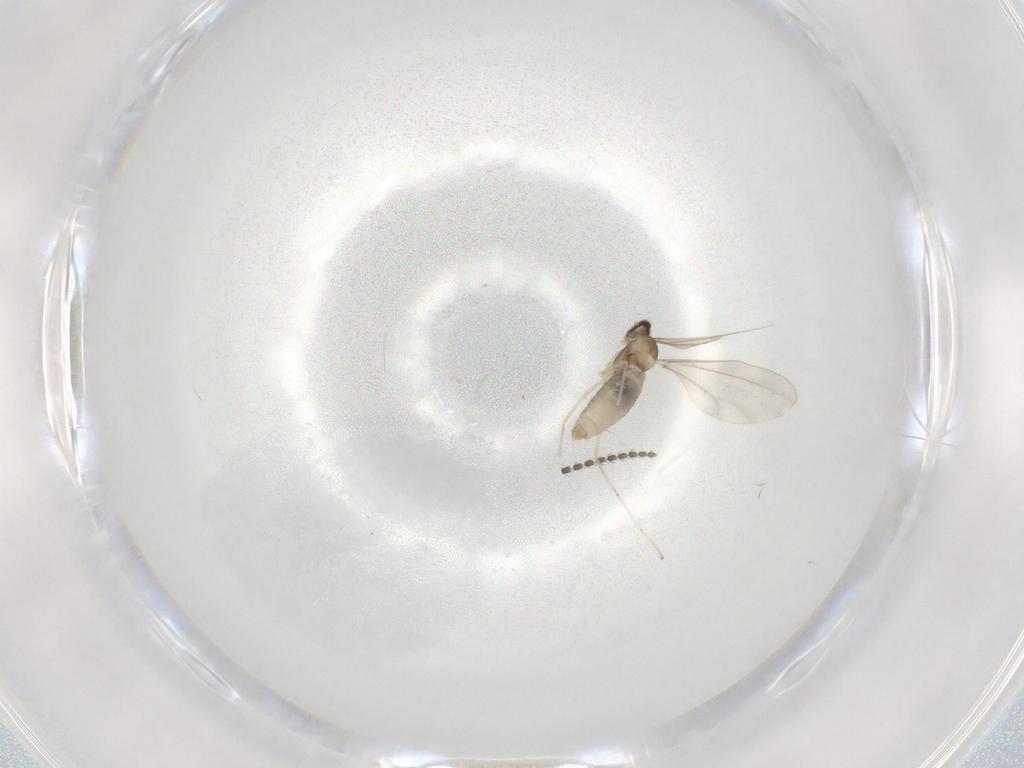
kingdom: Animalia
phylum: Arthropoda
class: Insecta
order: Diptera
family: Cecidomyiidae
